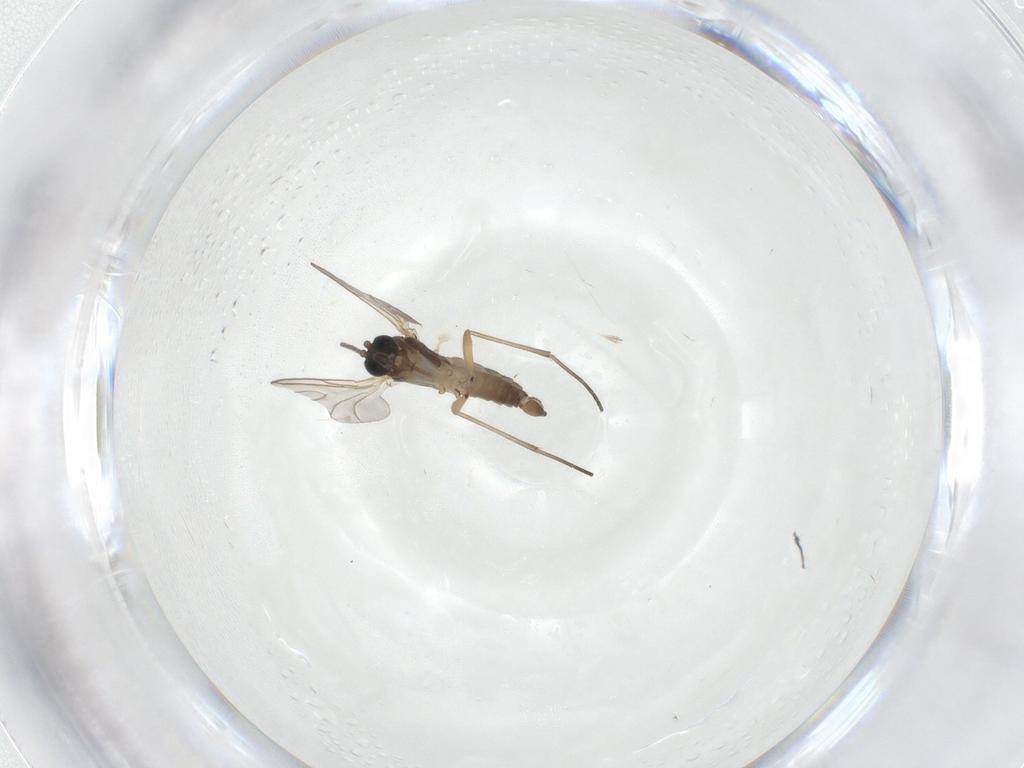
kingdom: Animalia
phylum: Arthropoda
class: Insecta
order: Diptera
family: Sciaridae
